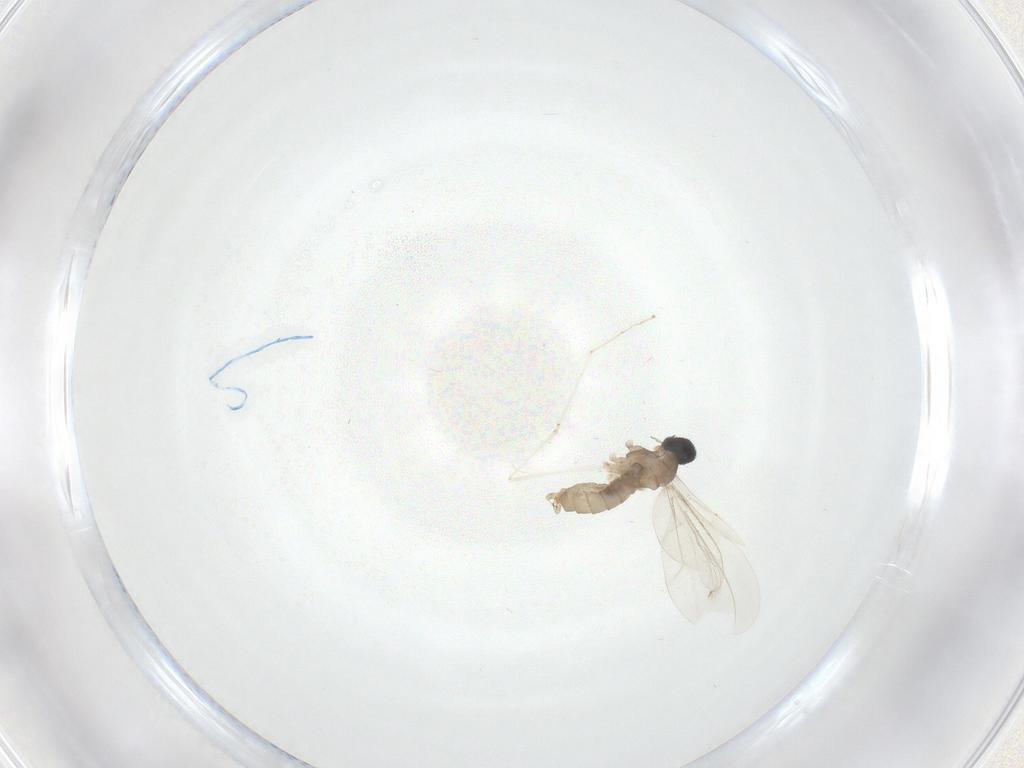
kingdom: Animalia
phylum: Arthropoda
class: Insecta
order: Diptera
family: Cecidomyiidae
